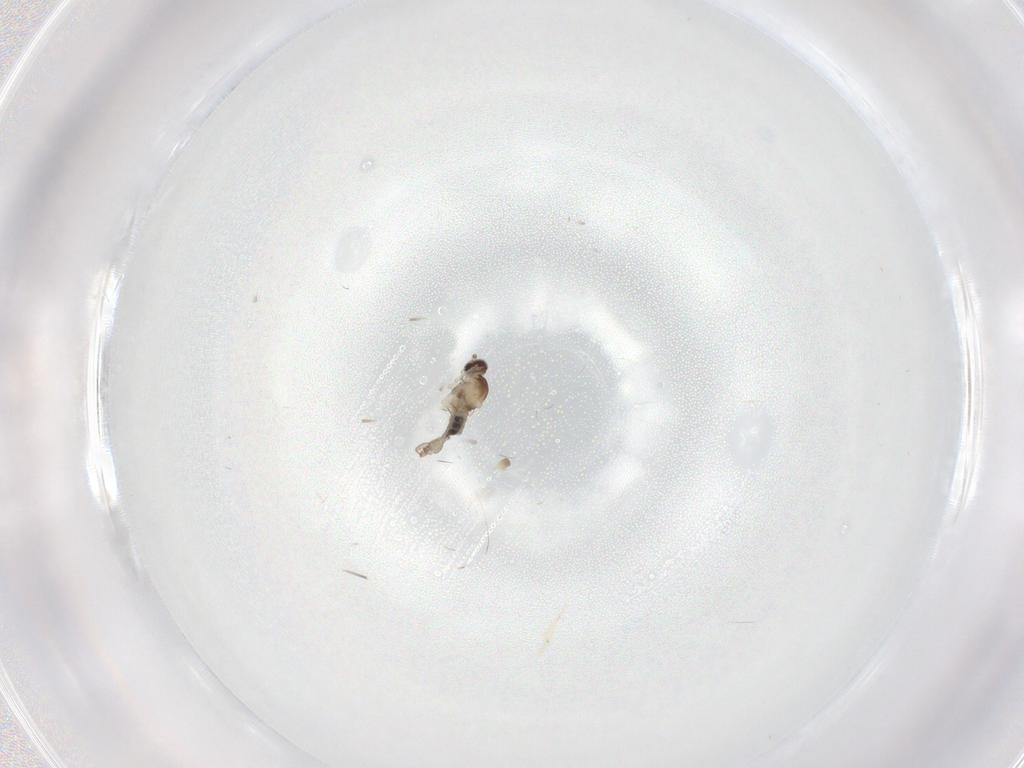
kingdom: Animalia
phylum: Arthropoda
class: Insecta
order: Diptera
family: Cecidomyiidae
